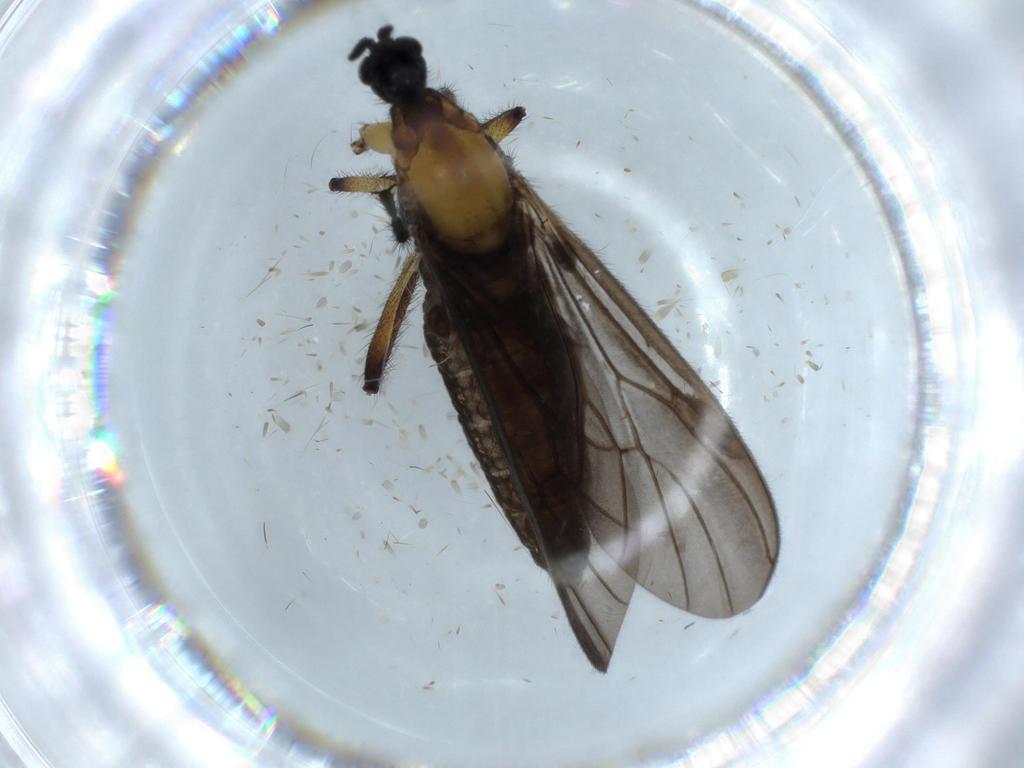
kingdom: Animalia
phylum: Arthropoda
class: Insecta
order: Diptera
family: Bibionidae
